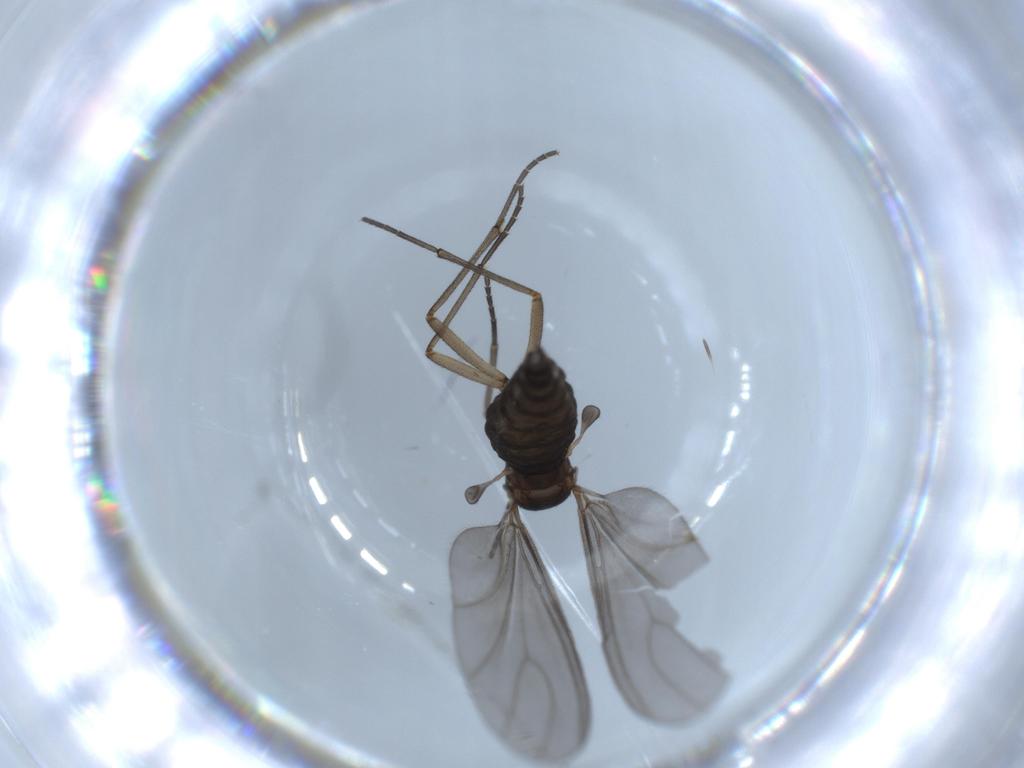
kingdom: Animalia
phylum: Arthropoda
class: Insecta
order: Diptera
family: Sciaridae
